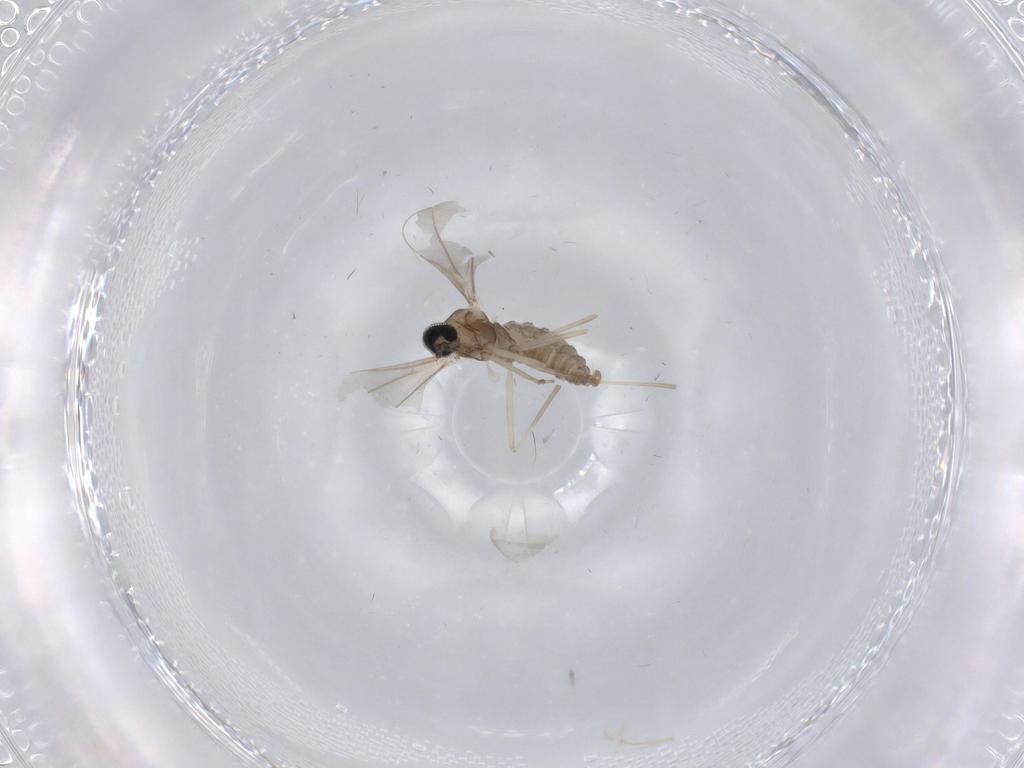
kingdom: Animalia
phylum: Arthropoda
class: Insecta
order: Diptera
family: Cecidomyiidae
